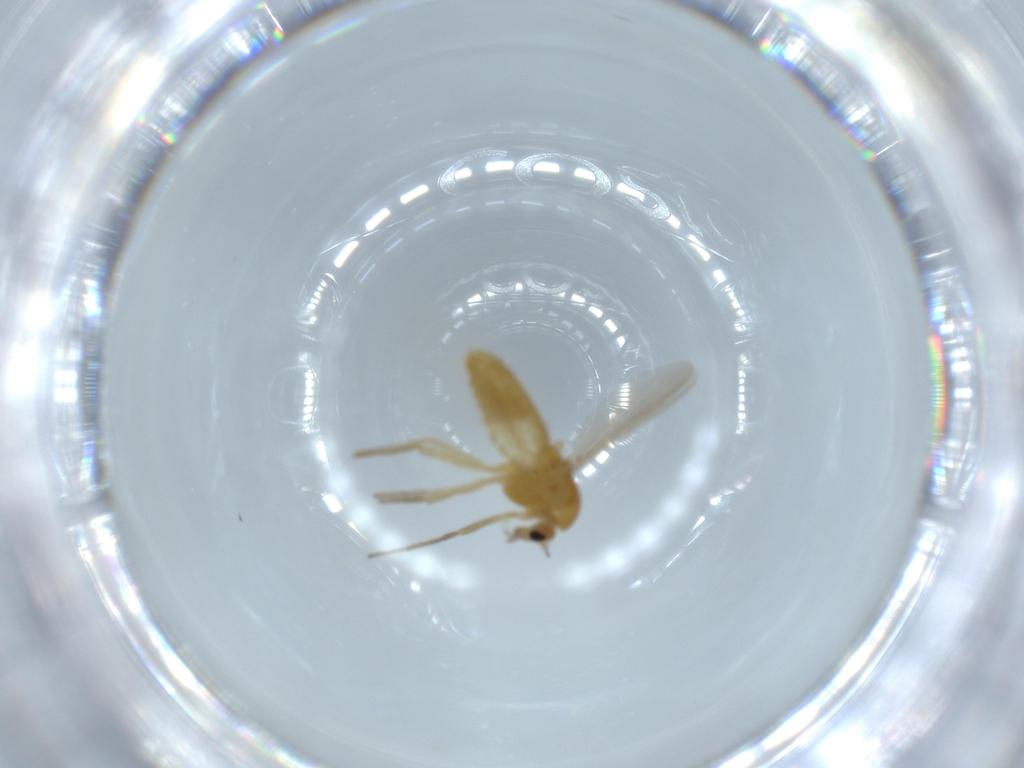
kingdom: Animalia
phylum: Arthropoda
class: Insecta
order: Diptera
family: Chironomidae
